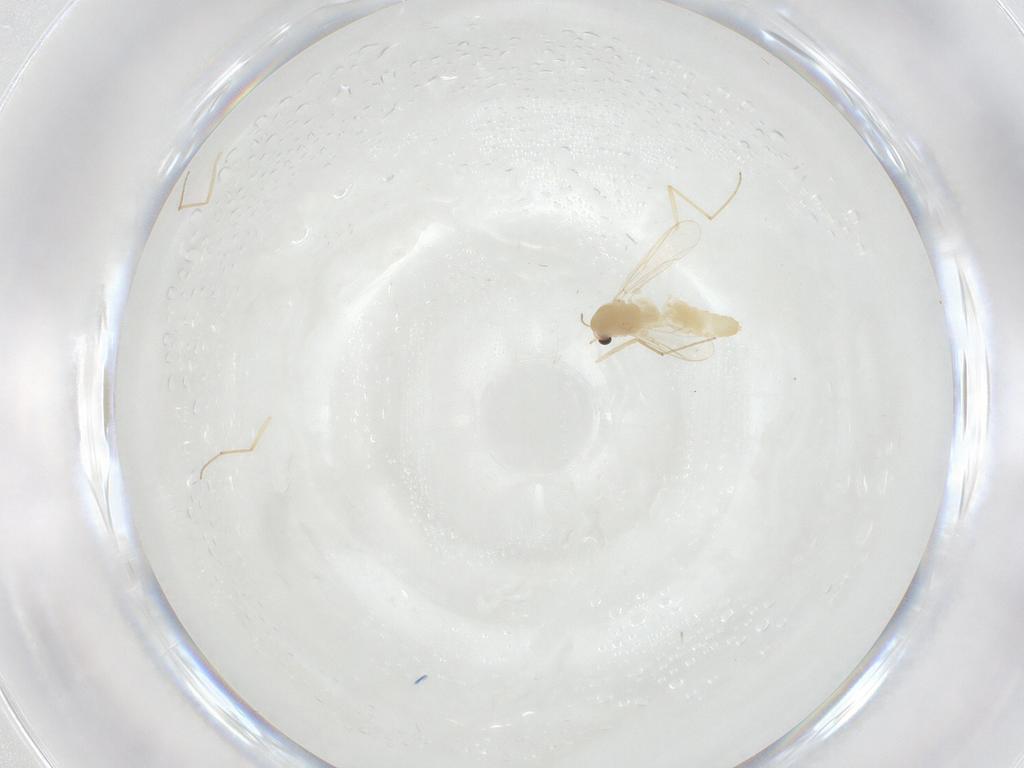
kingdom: Animalia
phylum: Arthropoda
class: Insecta
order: Diptera
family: Chironomidae
